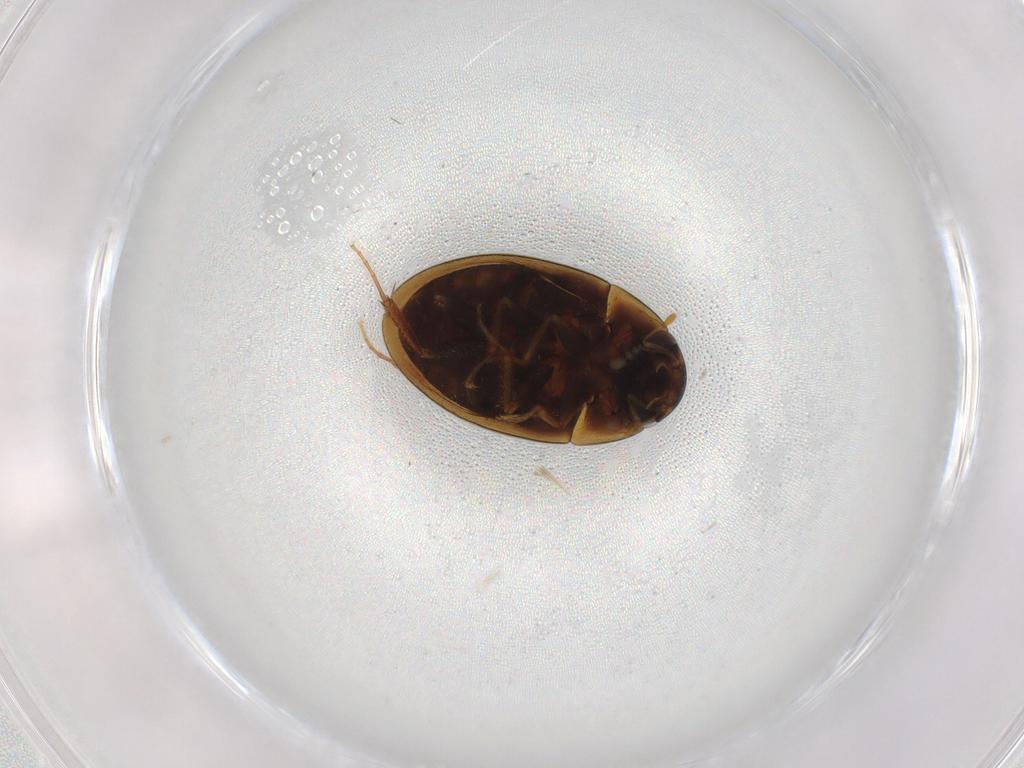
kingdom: Animalia
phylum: Arthropoda
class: Insecta
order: Coleoptera
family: Hydrophilidae
